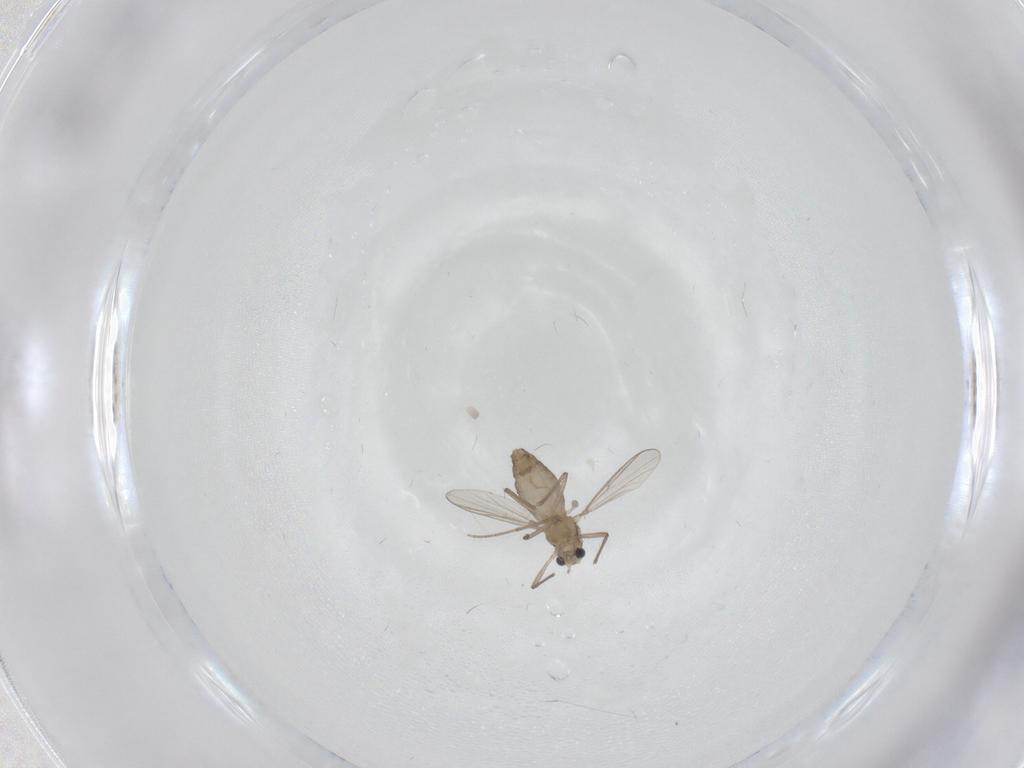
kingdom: Animalia
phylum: Arthropoda
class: Insecta
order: Diptera
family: Chironomidae
